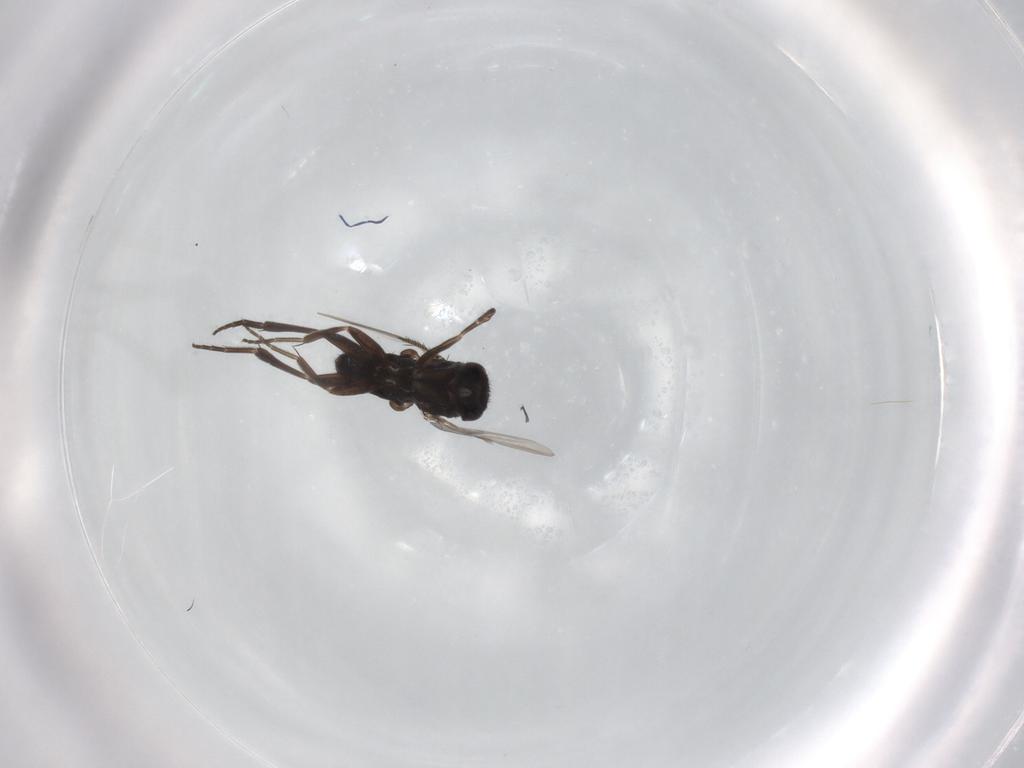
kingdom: Animalia
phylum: Arthropoda
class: Insecta
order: Diptera
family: Phoridae
